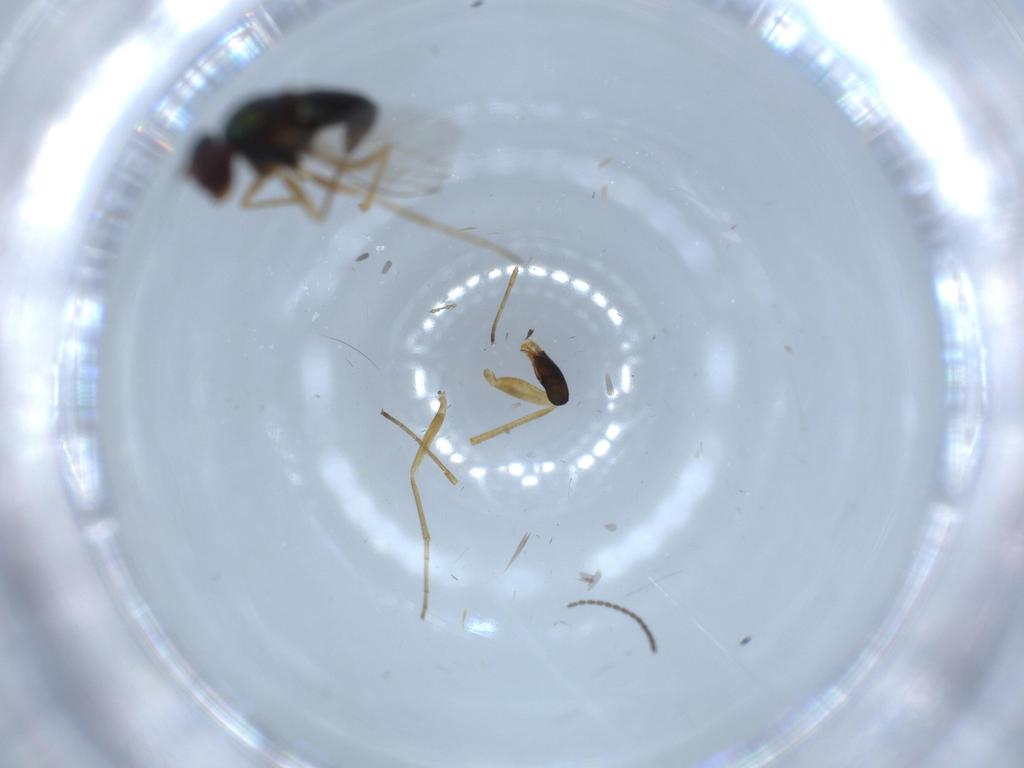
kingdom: Animalia
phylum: Arthropoda
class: Insecta
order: Diptera
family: Dolichopodidae
